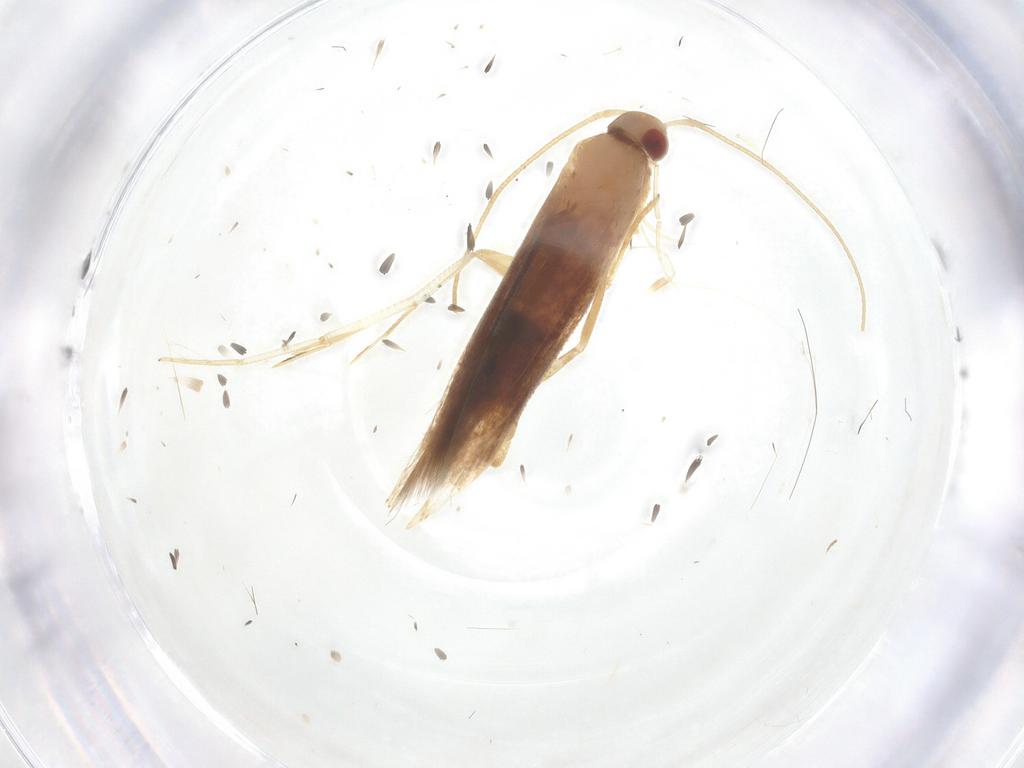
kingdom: Animalia
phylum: Arthropoda
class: Insecta
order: Lepidoptera
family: Cosmopterigidae
